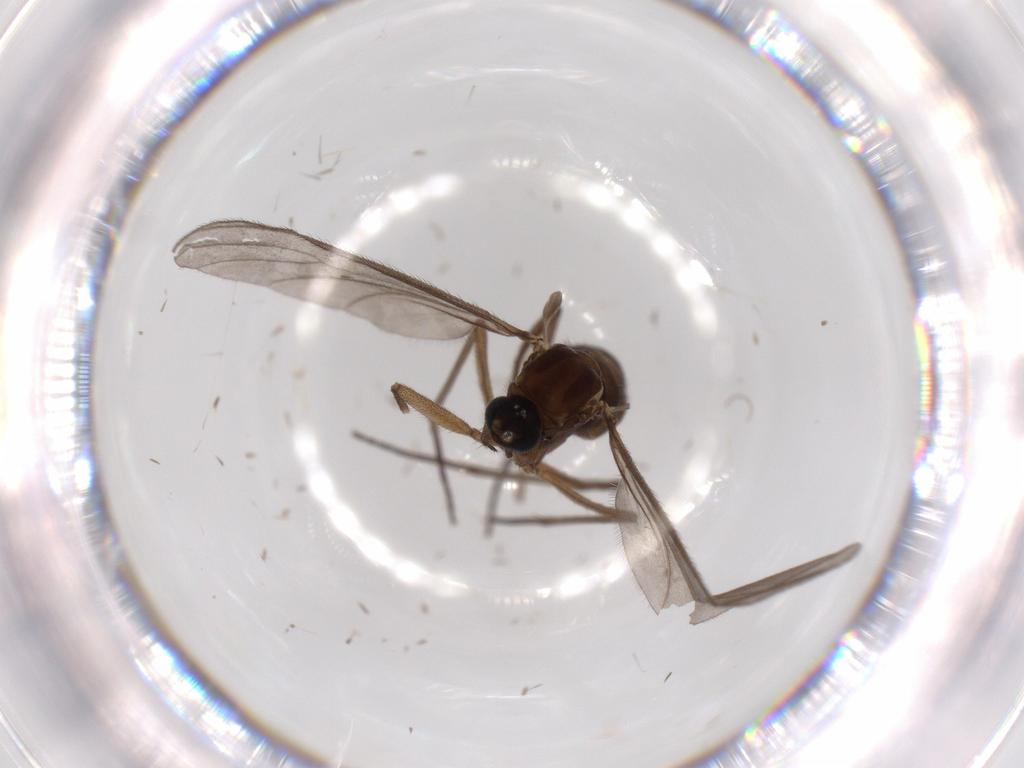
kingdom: Animalia
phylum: Arthropoda
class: Insecta
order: Diptera
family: Sciaridae
